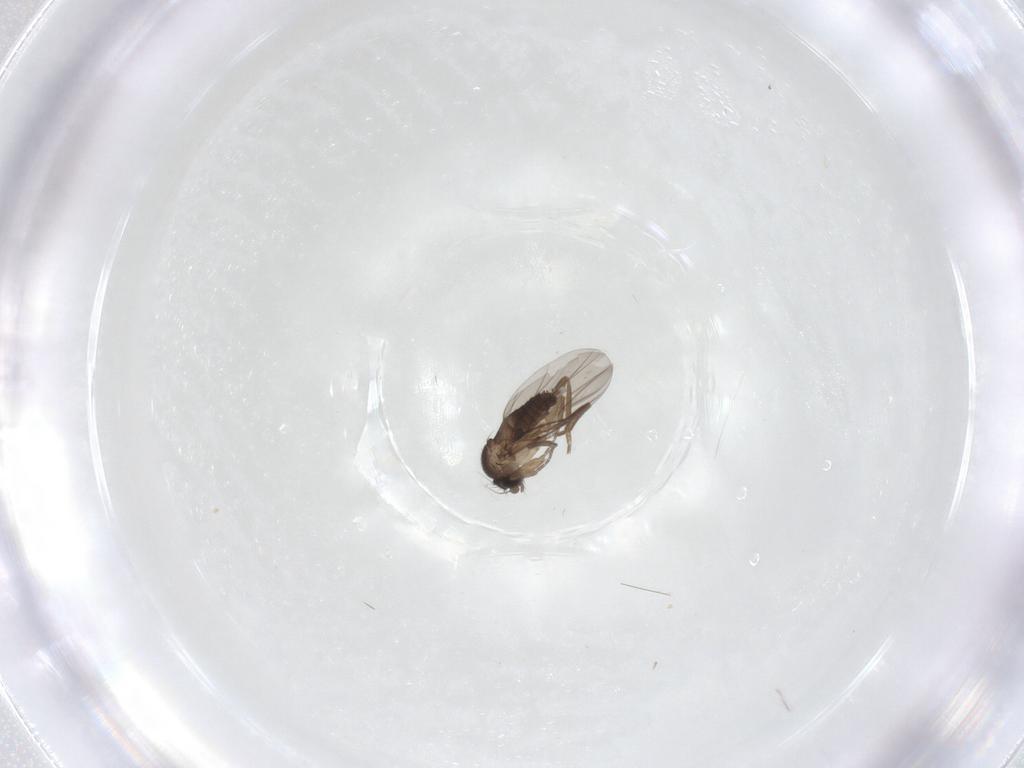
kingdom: Animalia
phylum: Arthropoda
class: Insecta
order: Diptera
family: Phoridae
